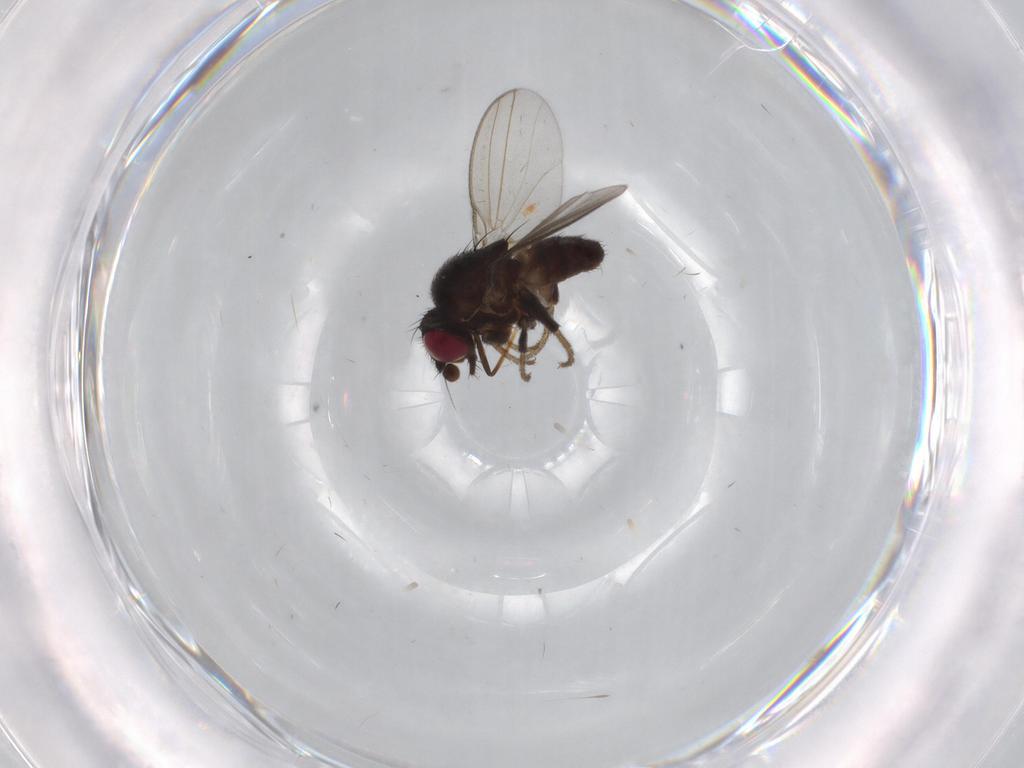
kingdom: Animalia
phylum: Arthropoda
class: Insecta
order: Diptera
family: Milichiidae
